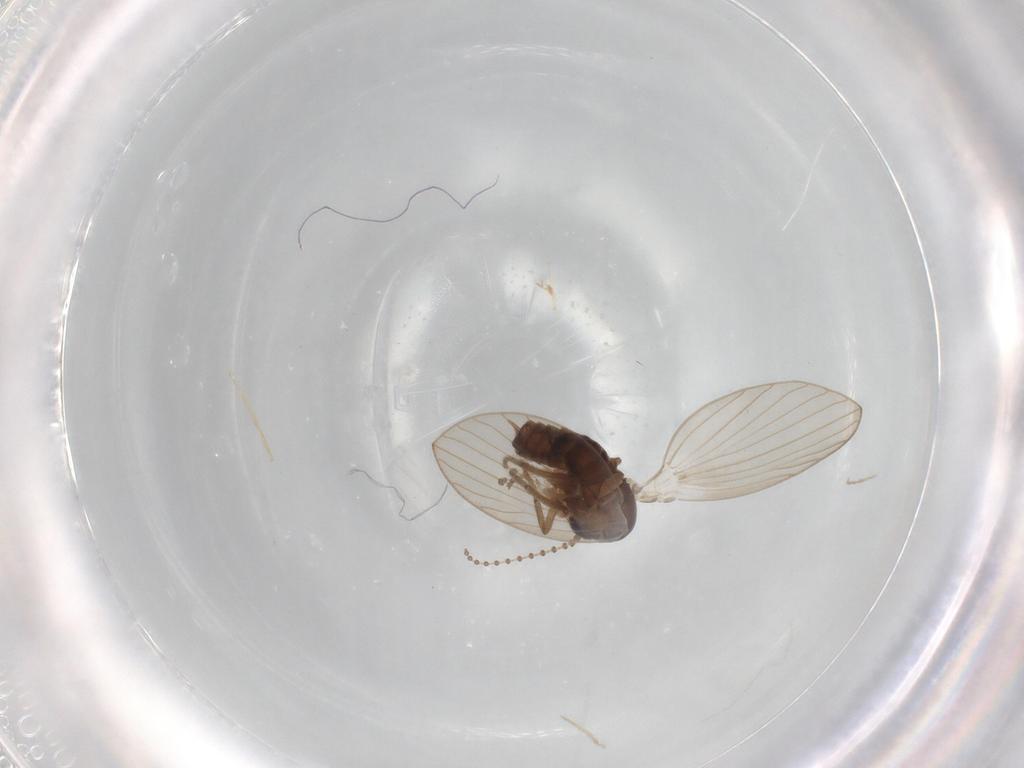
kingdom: Animalia
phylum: Arthropoda
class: Insecta
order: Diptera
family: Psychodidae
